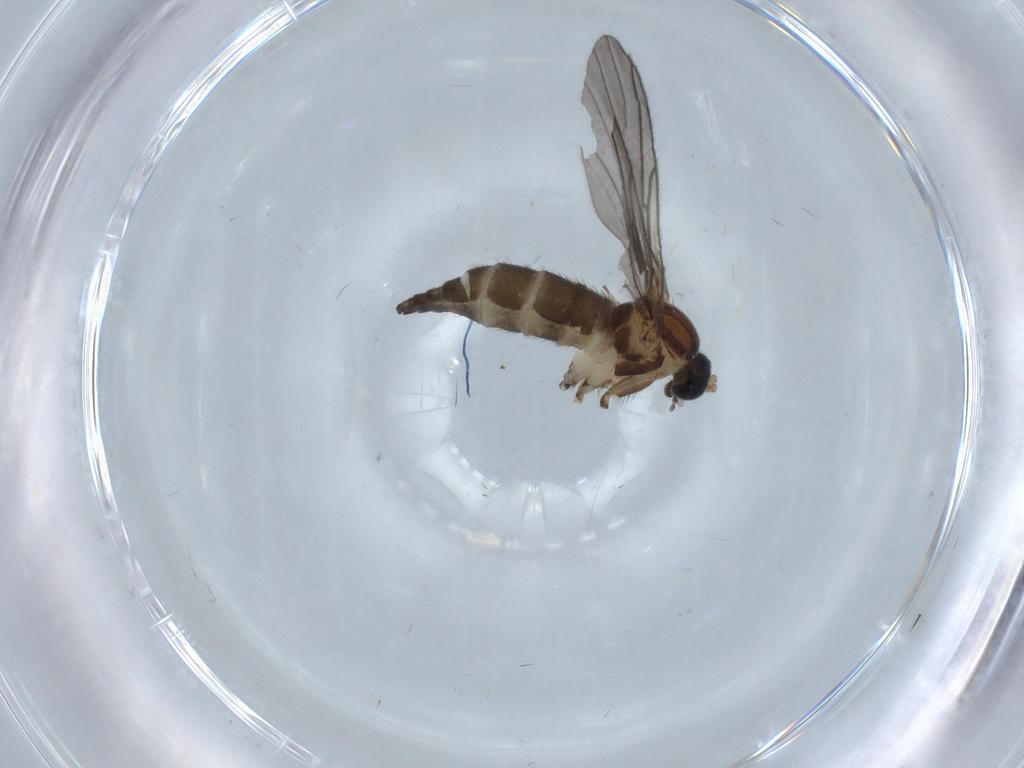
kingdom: Animalia
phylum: Arthropoda
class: Insecta
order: Diptera
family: Sciaridae
